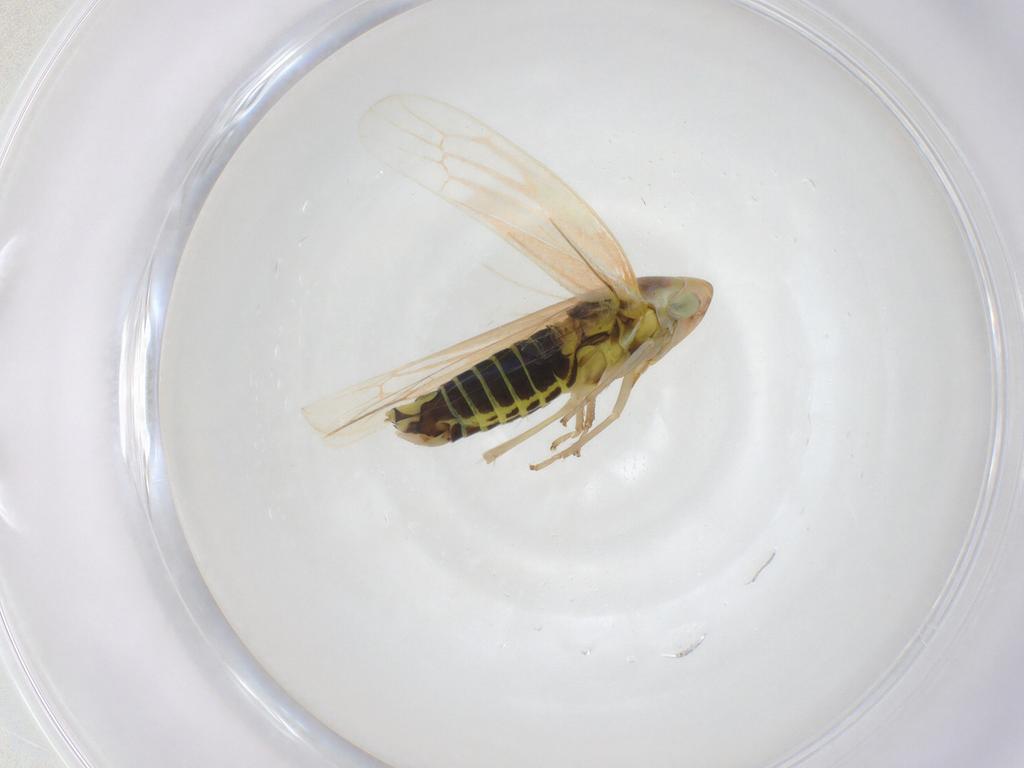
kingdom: Animalia
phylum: Arthropoda
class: Insecta
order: Hemiptera
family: Cicadellidae
